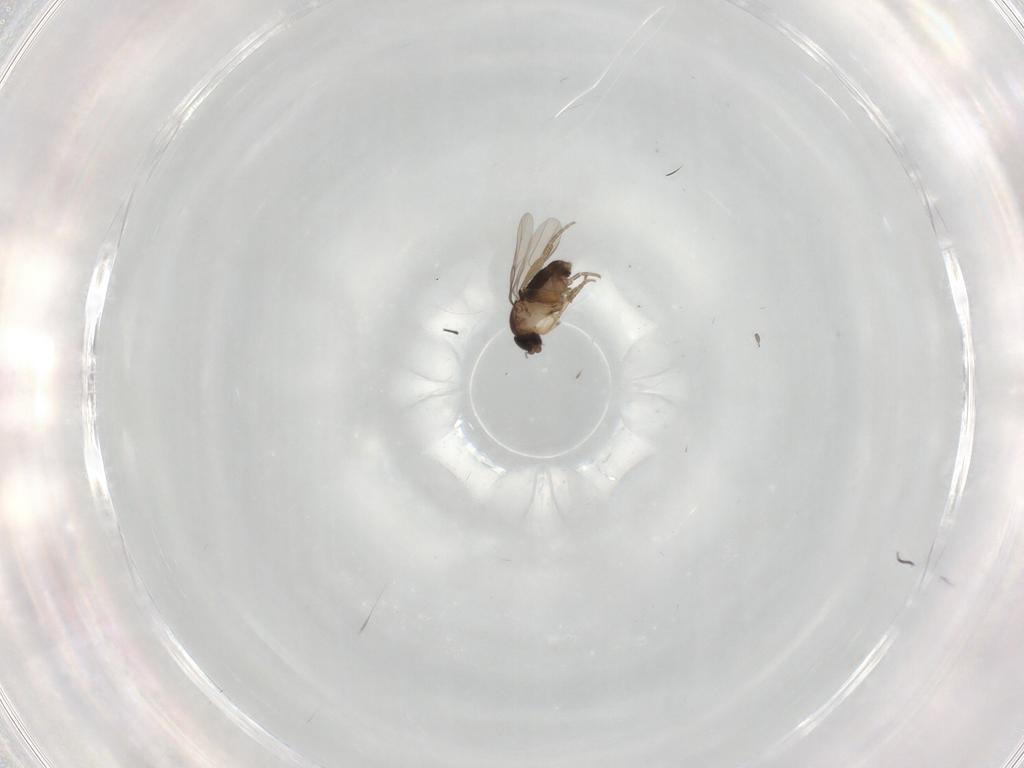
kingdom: Animalia
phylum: Arthropoda
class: Insecta
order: Diptera
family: Phoridae
